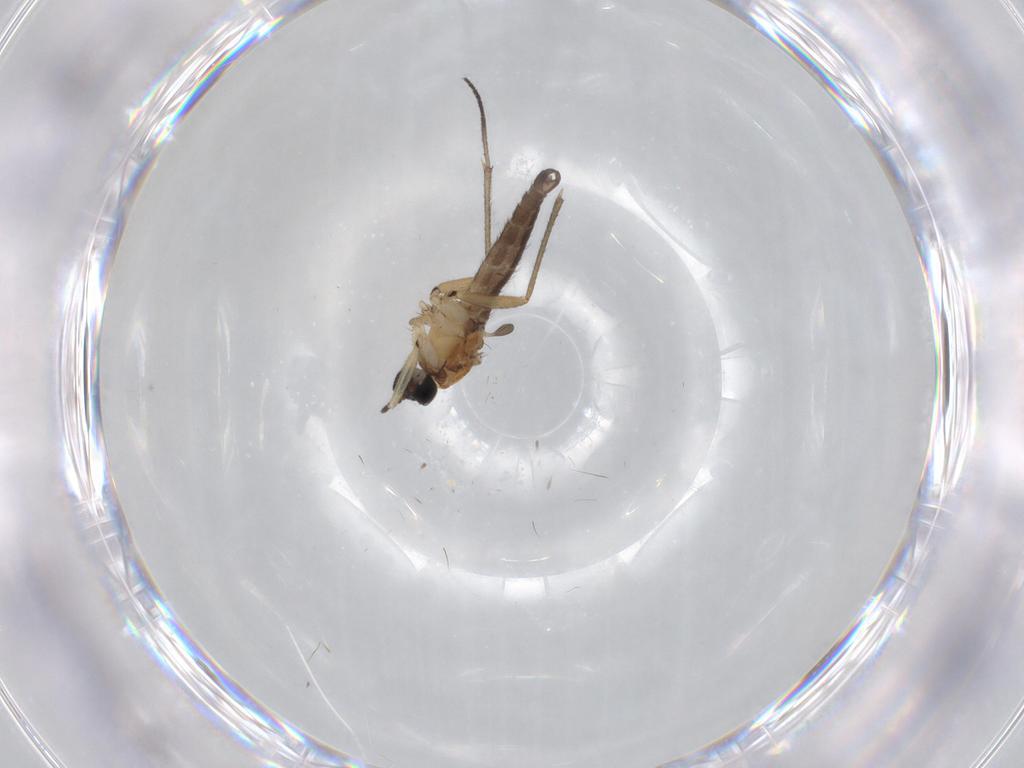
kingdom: Animalia
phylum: Arthropoda
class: Insecta
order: Diptera
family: Cecidomyiidae
